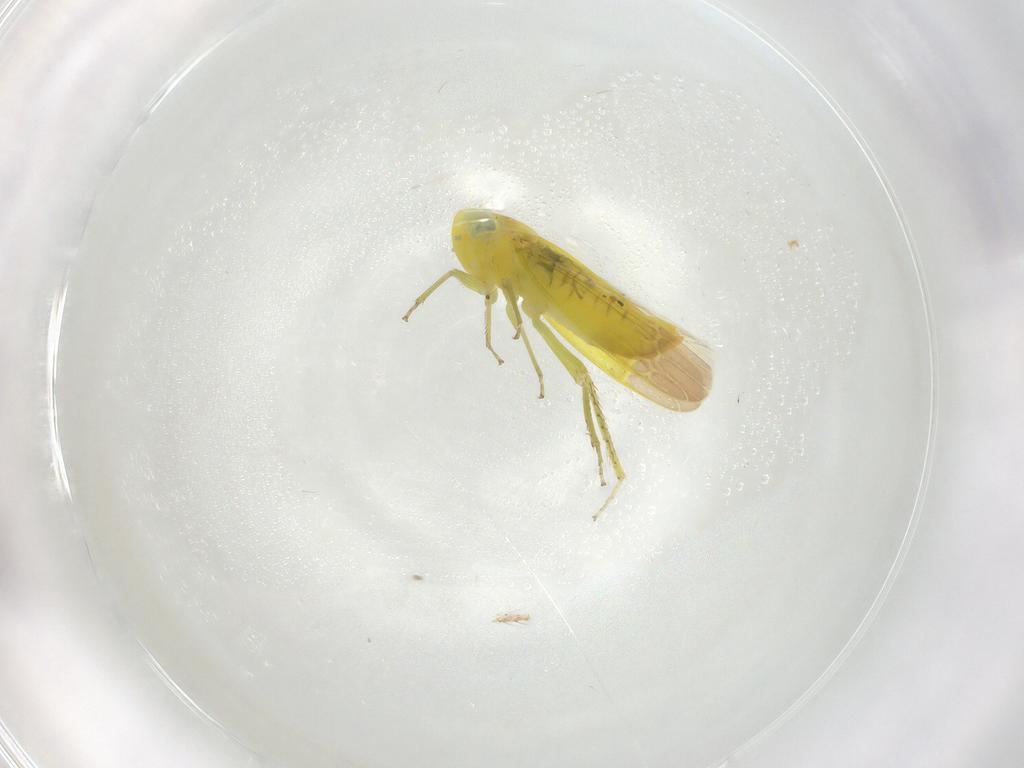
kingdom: Animalia
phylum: Arthropoda
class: Insecta
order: Hemiptera
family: Cicadellidae
